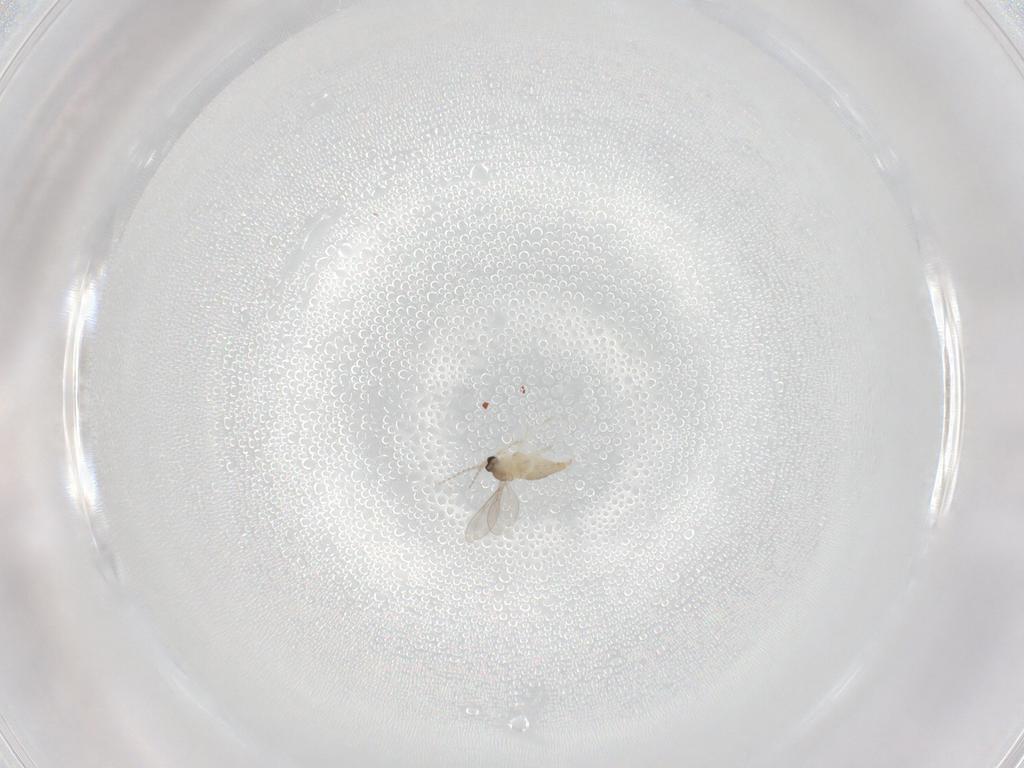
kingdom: Animalia
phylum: Arthropoda
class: Insecta
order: Diptera
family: Cecidomyiidae
